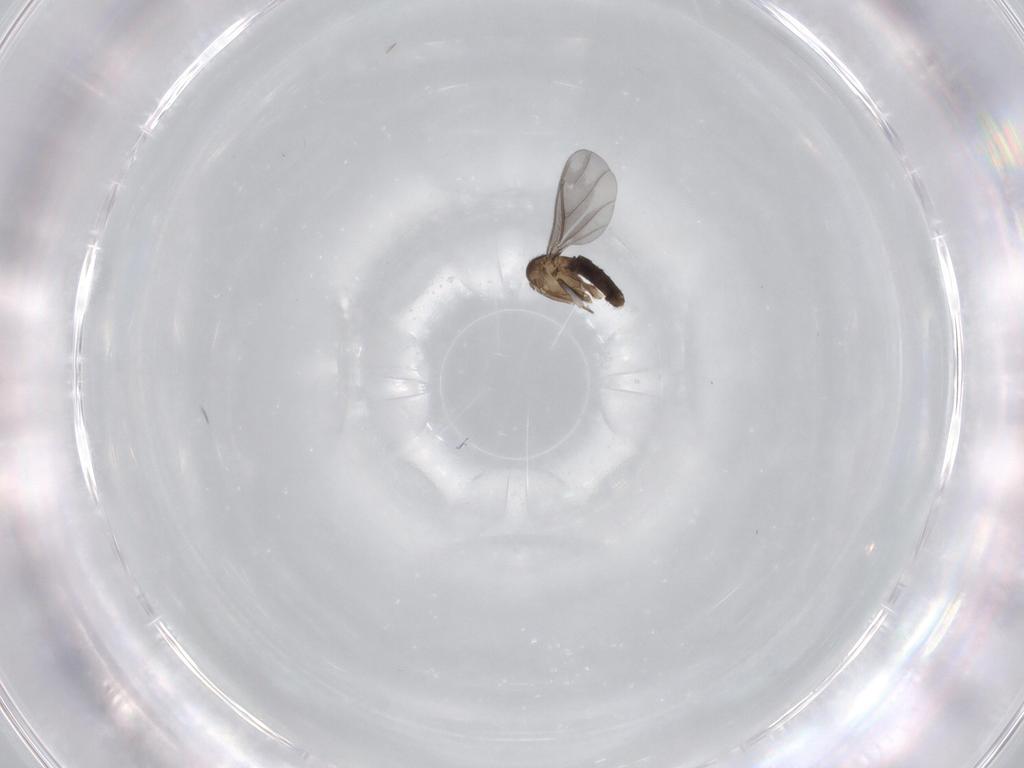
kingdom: Animalia
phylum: Arthropoda
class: Insecta
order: Diptera
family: Phoridae
